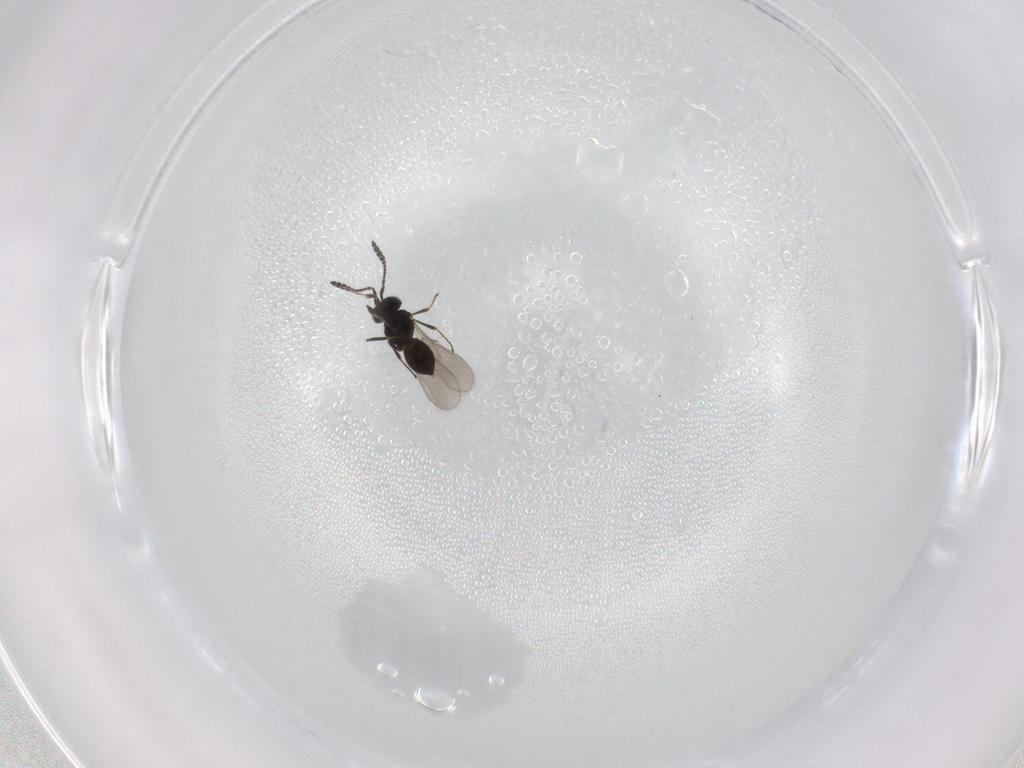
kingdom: Animalia
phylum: Arthropoda
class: Insecta
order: Hymenoptera
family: Scelionidae
